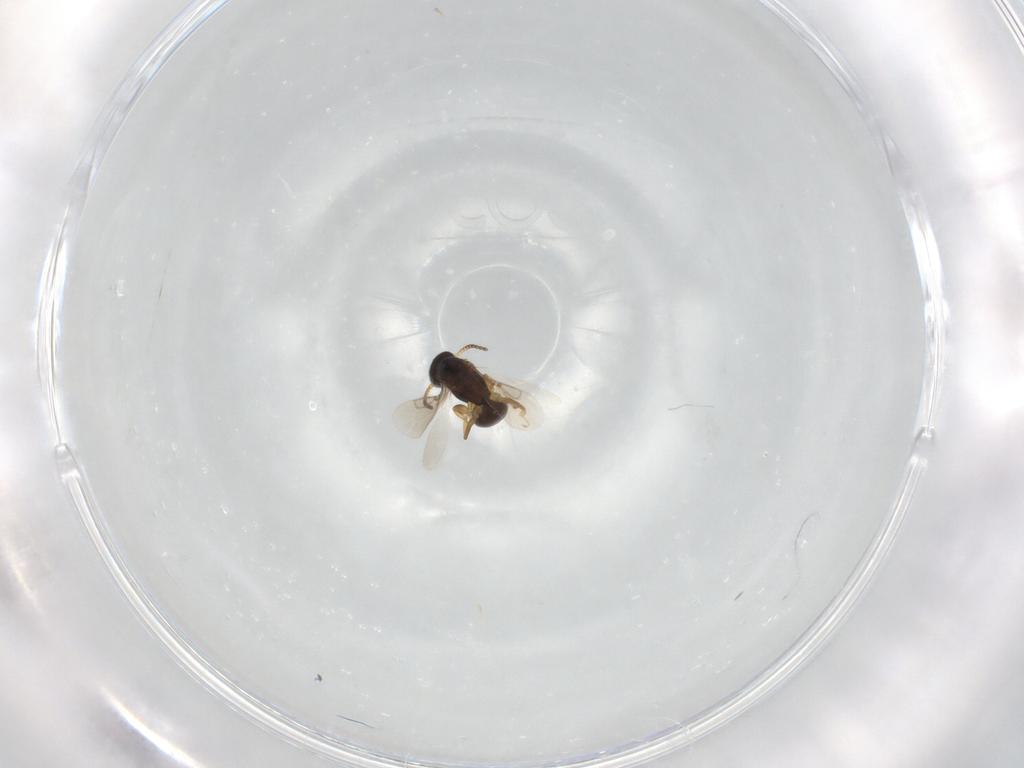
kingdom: Animalia
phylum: Arthropoda
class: Insecta
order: Hymenoptera
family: Bethylidae
